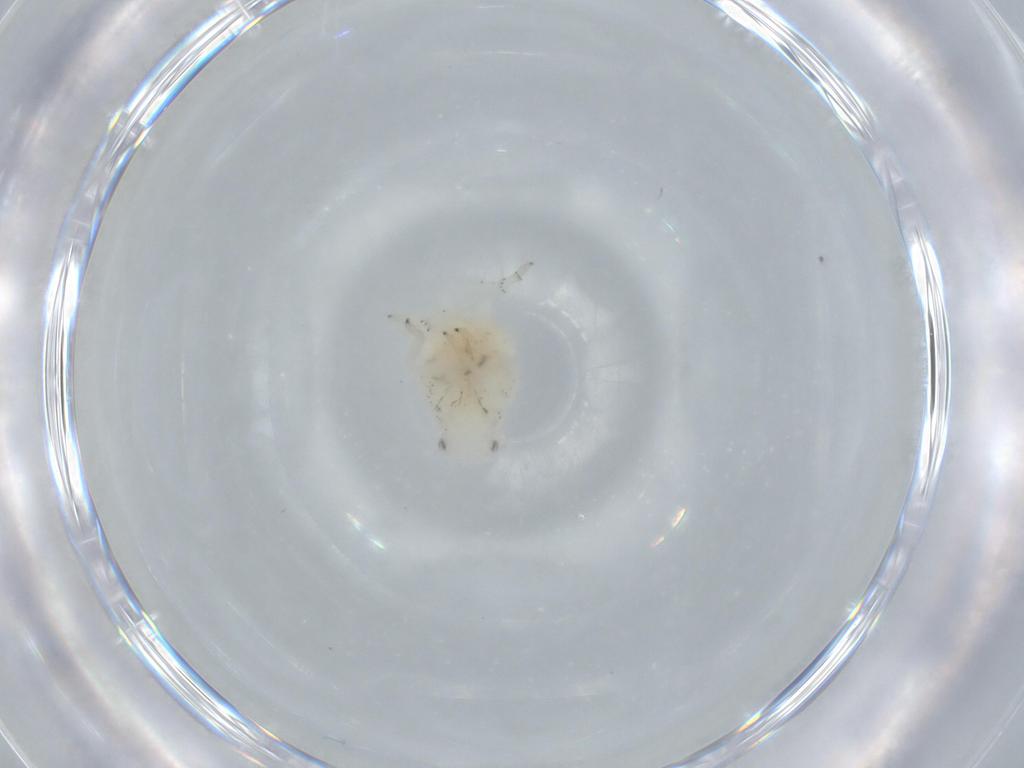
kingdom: Animalia
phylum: Arthropoda
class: Insecta
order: Hemiptera
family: Flatidae
